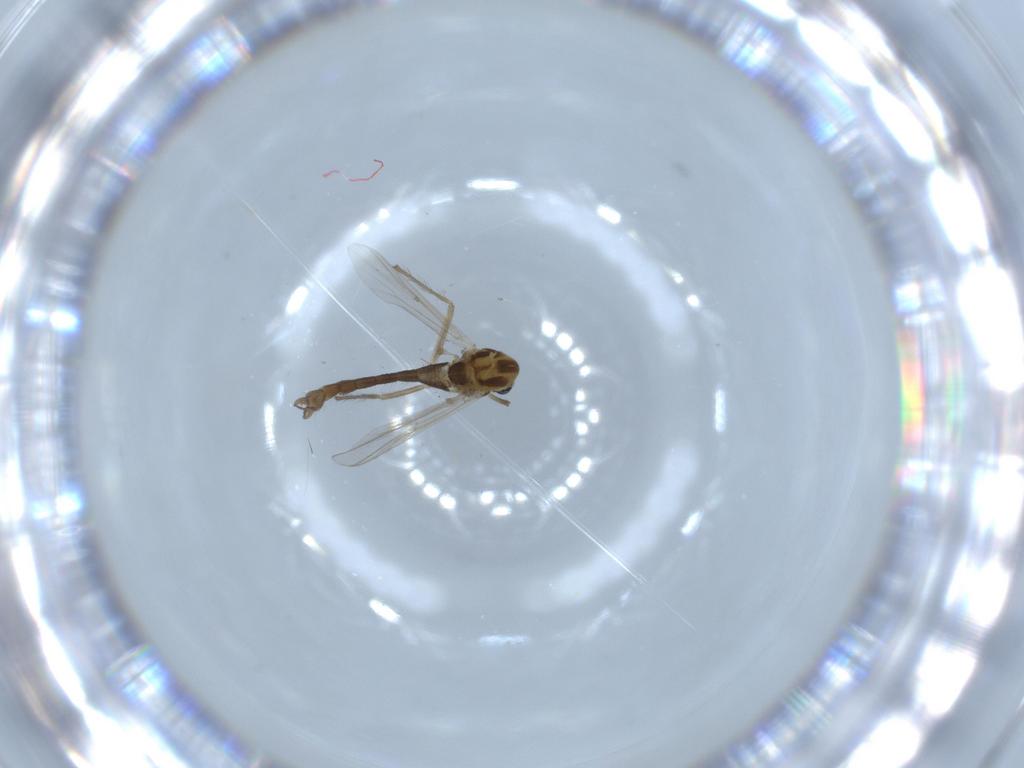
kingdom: Animalia
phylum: Arthropoda
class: Insecta
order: Diptera
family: Chironomidae
